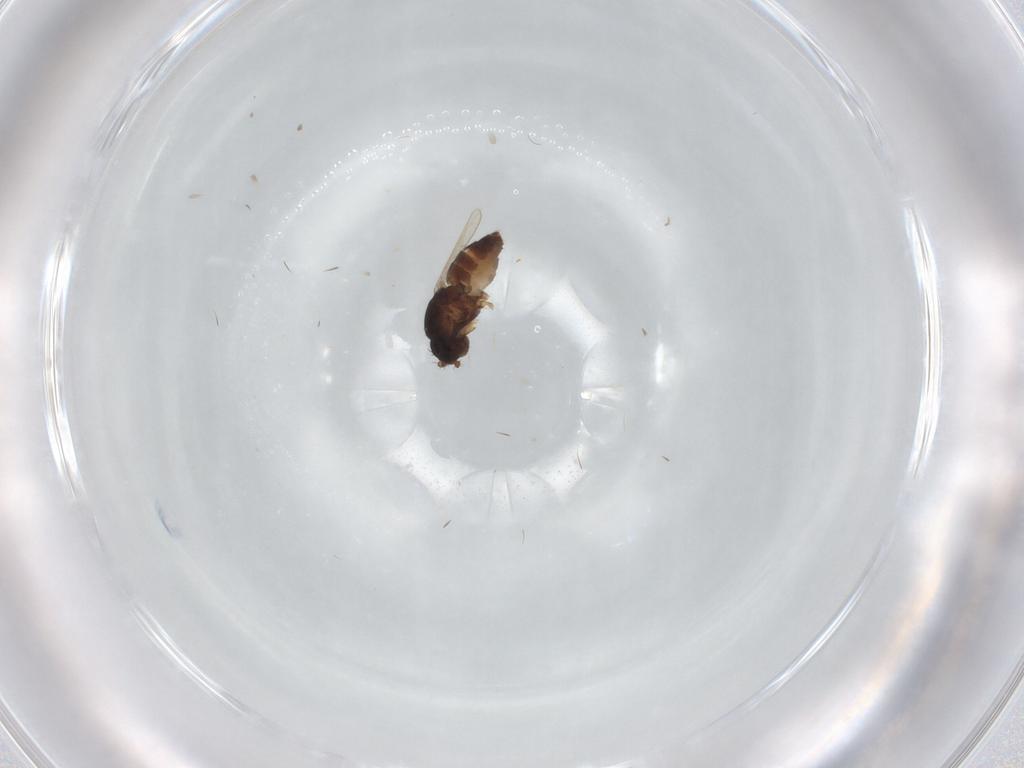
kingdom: Animalia
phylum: Arthropoda
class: Insecta
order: Diptera
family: Sphaeroceridae
